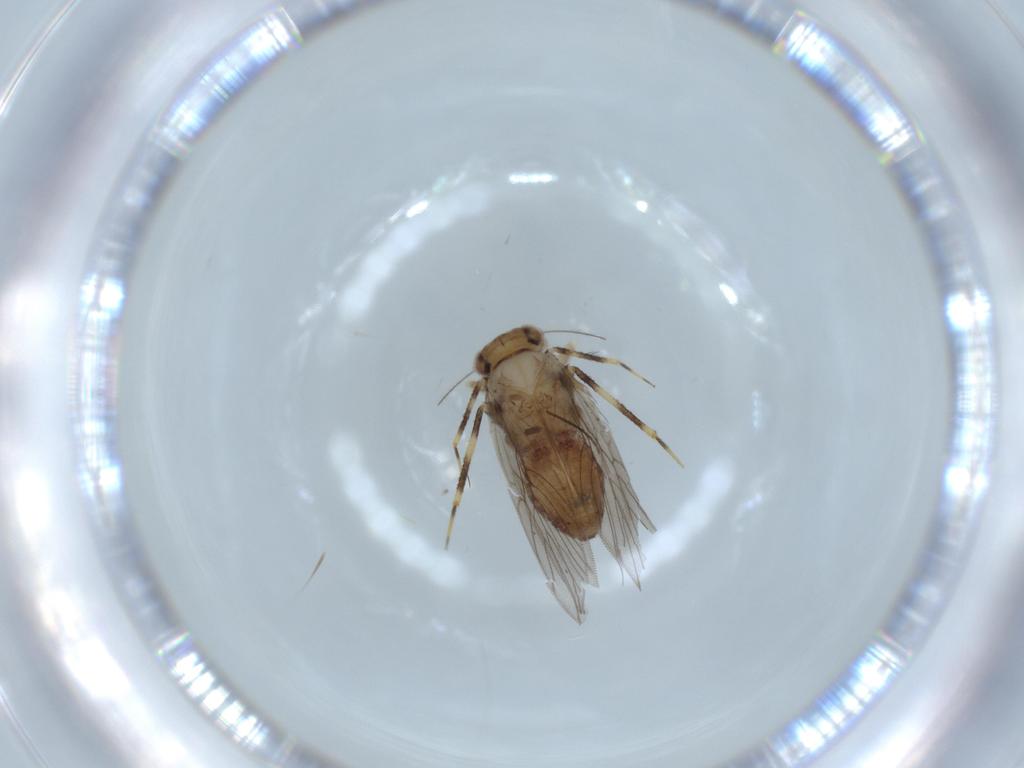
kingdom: Animalia
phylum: Arthropoda
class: Insecta
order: Psocodea
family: Lepidopsocidae
